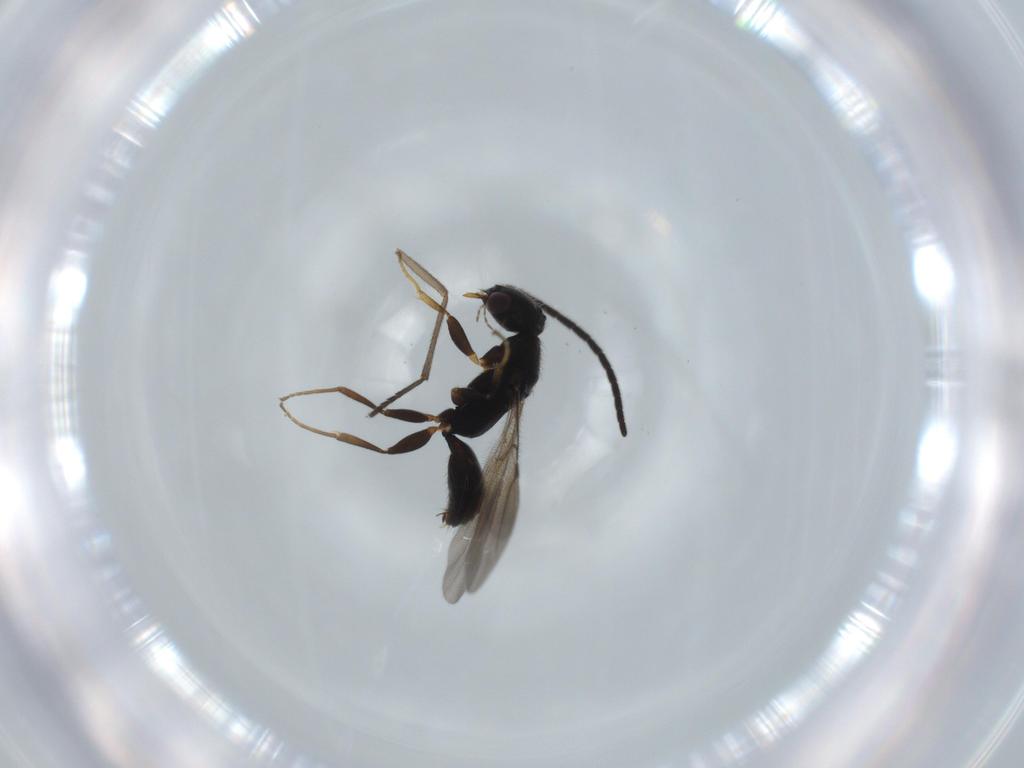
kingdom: Animalia
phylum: Arthropoda
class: Insecta
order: Hymenoptera
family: Bethylidae
